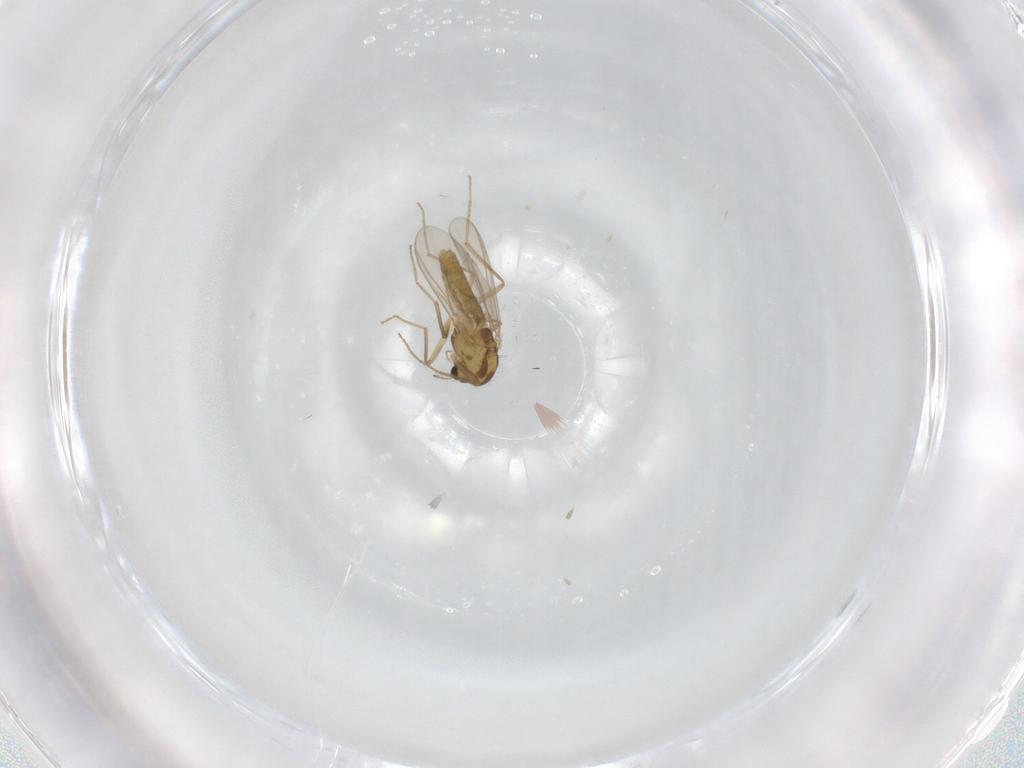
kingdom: Animalia
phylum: Arthropoda
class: Insecta
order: Diptera
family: Chironomidae
